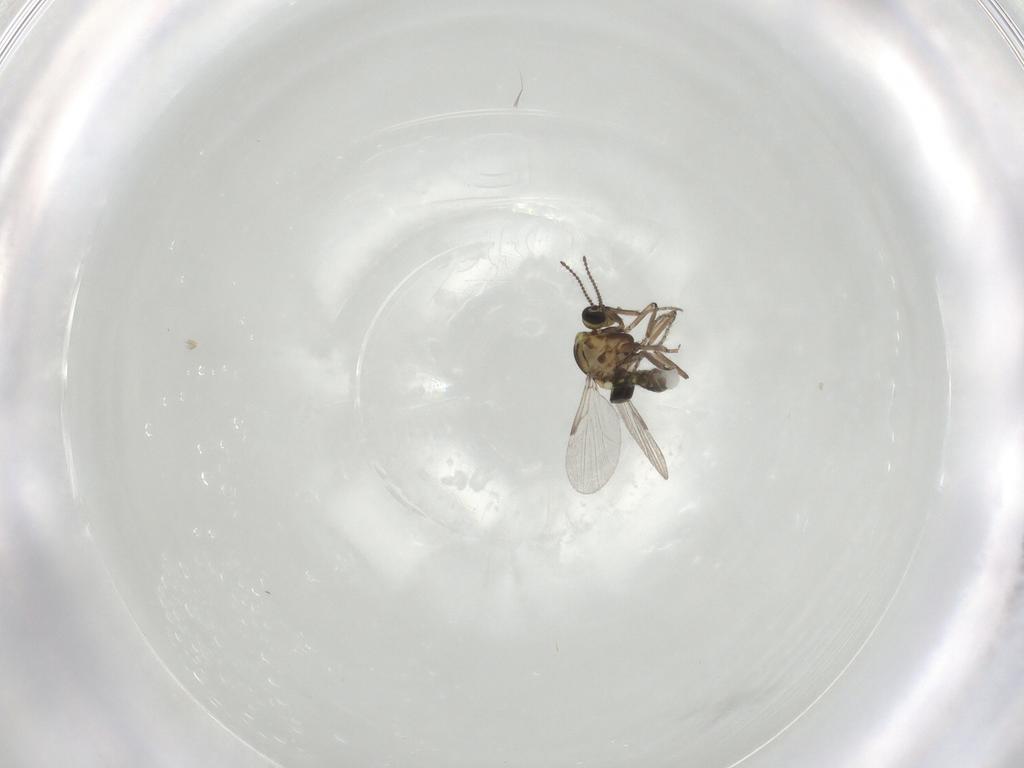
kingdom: Animalia
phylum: Arthropoda
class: Insecta
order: Diptera
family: Ceratopogonidae
